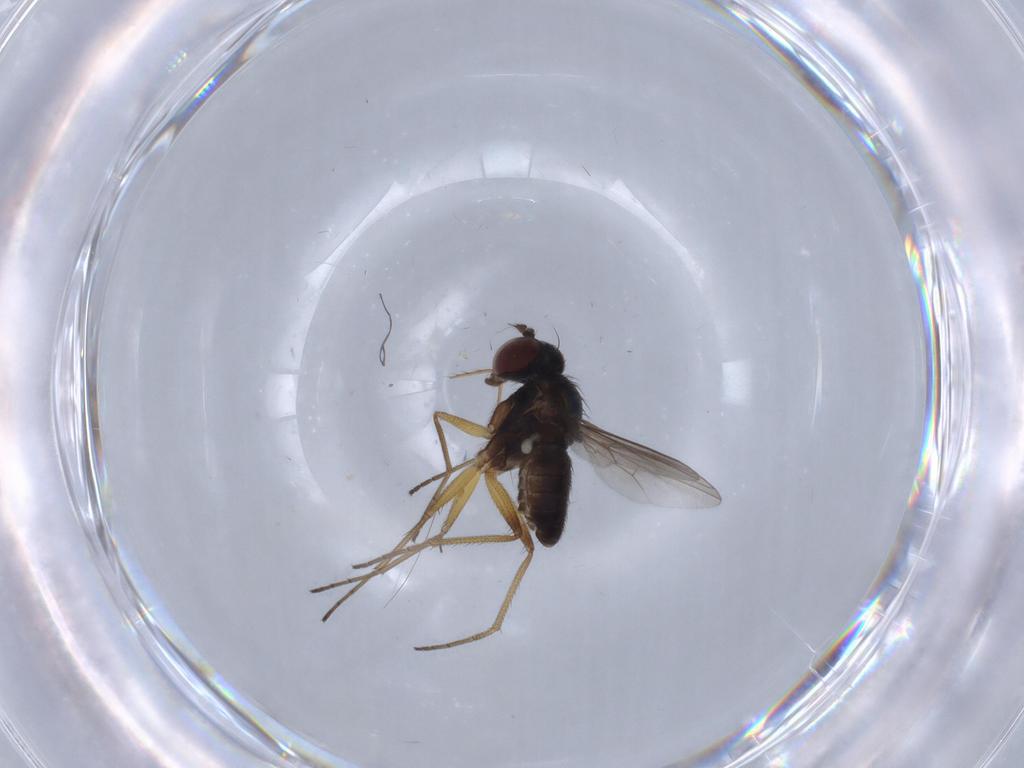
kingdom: Animalia
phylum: Arthropoda
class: Insecta
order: Diptera
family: Dolichopodidae
